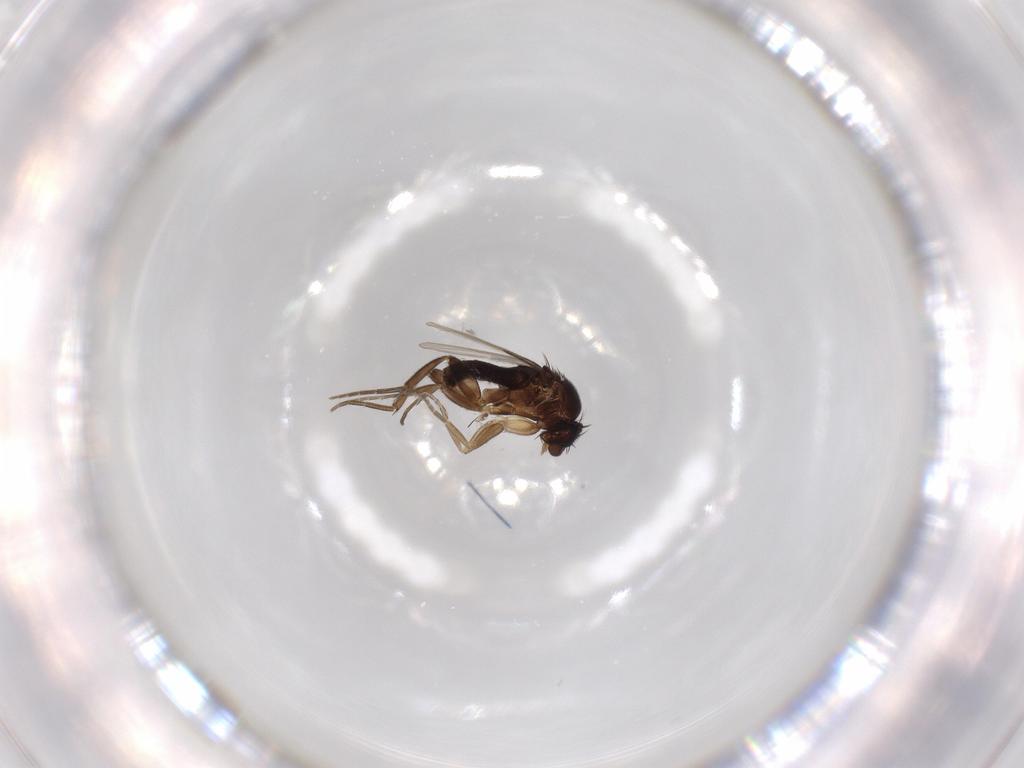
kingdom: Animalia
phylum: Arthropoda
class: Insecta
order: Diptera
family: Phoridae
